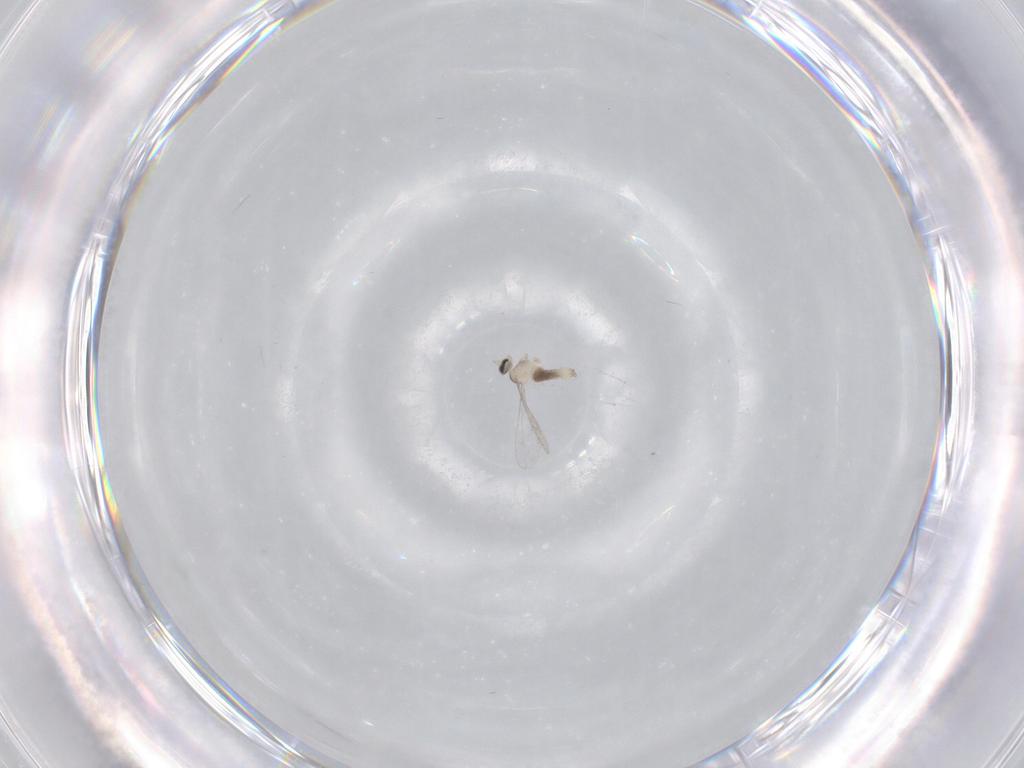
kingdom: Animalia
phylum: Arthropoda
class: Insecta
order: Diptera
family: Cecidomyiidae
